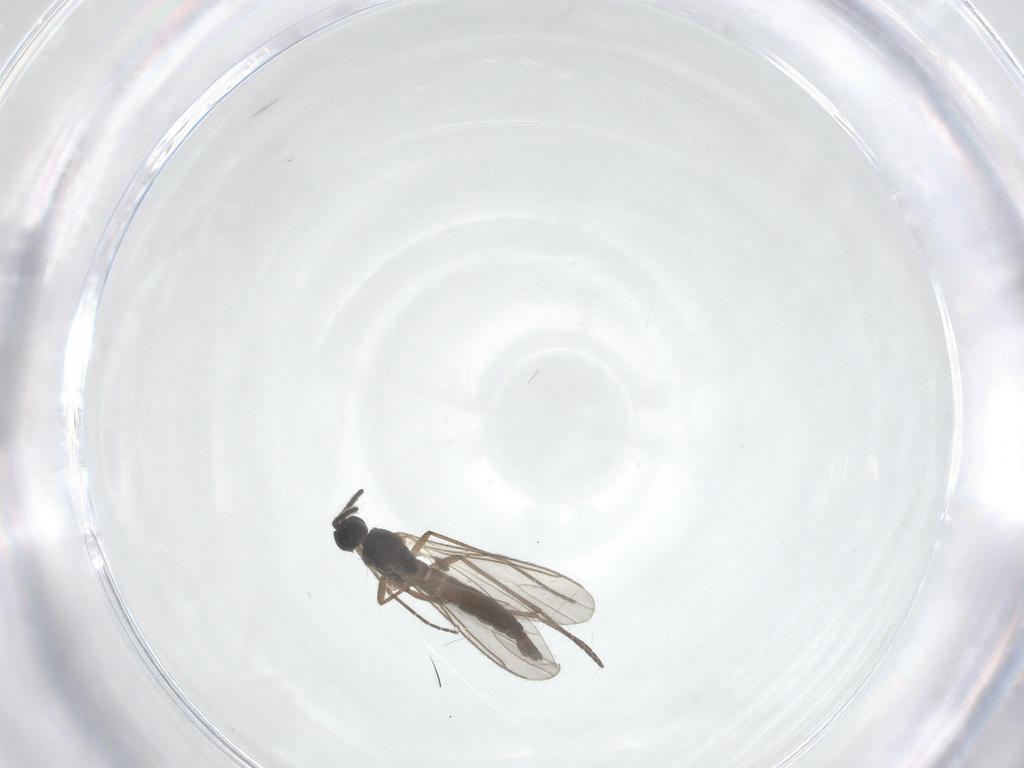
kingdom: Animalia
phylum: Arthropoda
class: Insecta
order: Diptera
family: Sciaridae
